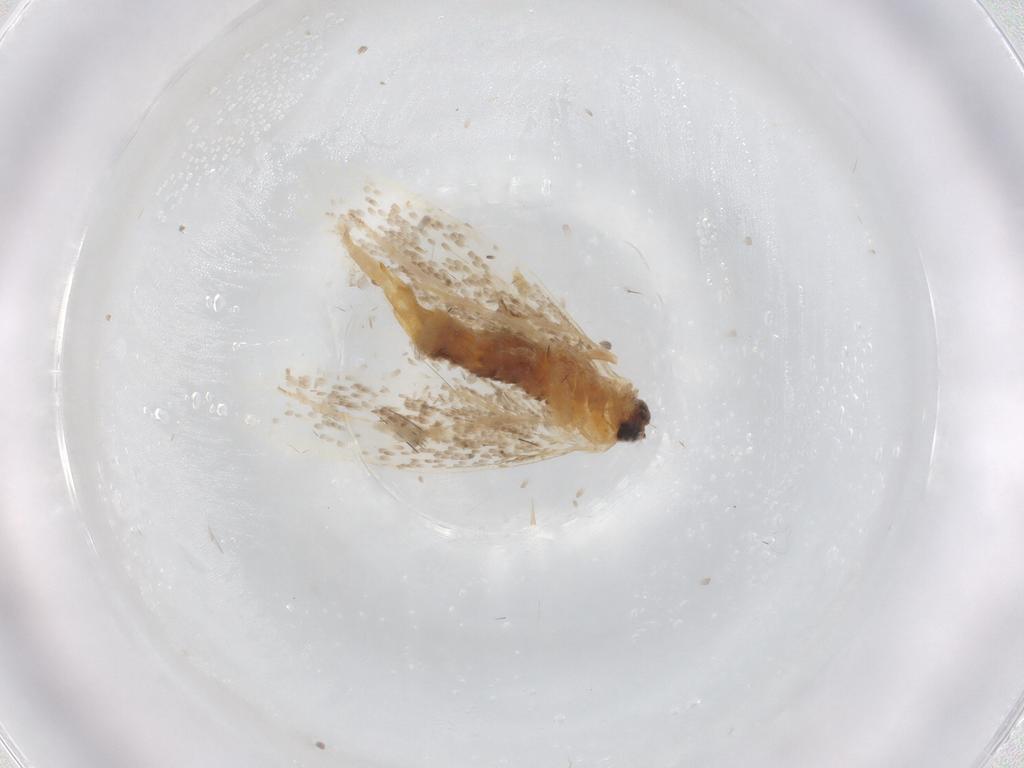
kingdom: Animalia
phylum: Arthropoda
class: Insecta
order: Lepidoptera
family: Tineidae
